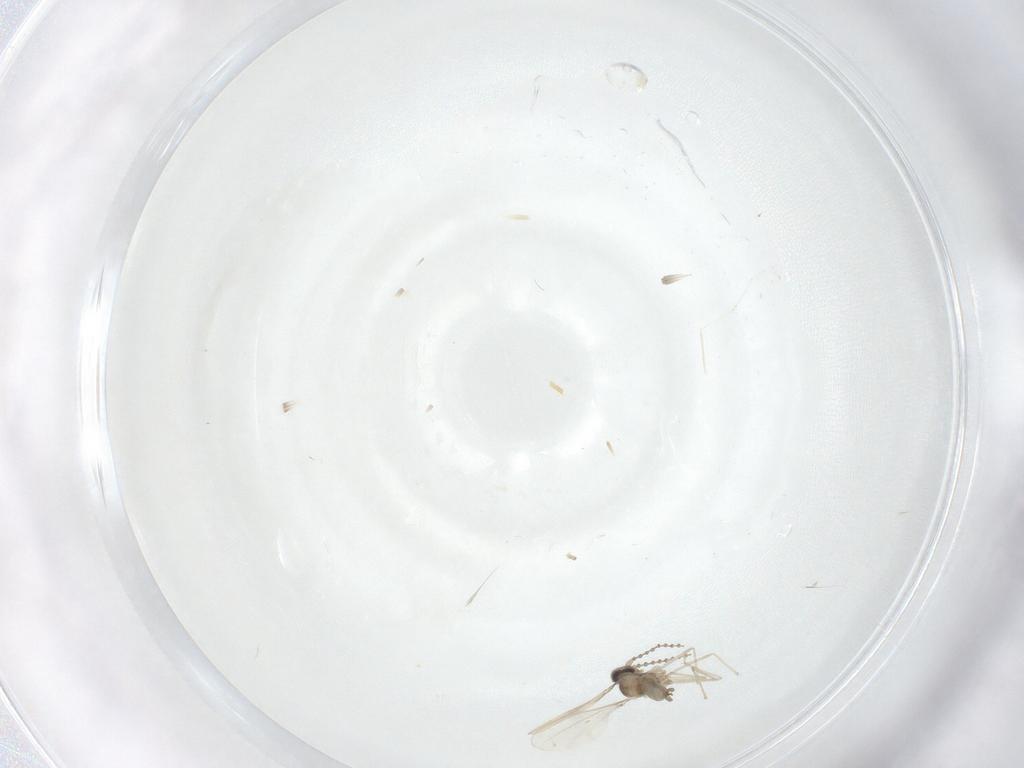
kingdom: Animalia
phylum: Arthropoda
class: Insecta
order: Diptera
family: Cecidomyiidae
